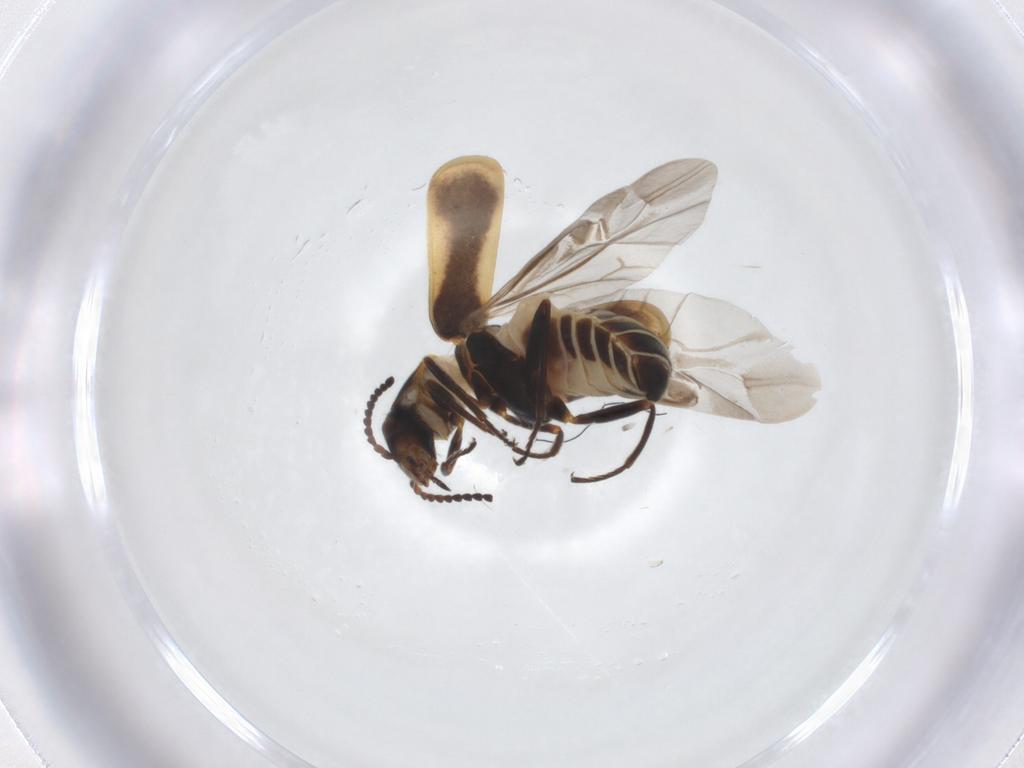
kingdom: Animalia
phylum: Arthropoda
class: Insecta
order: Coleoptera
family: Melyridae
